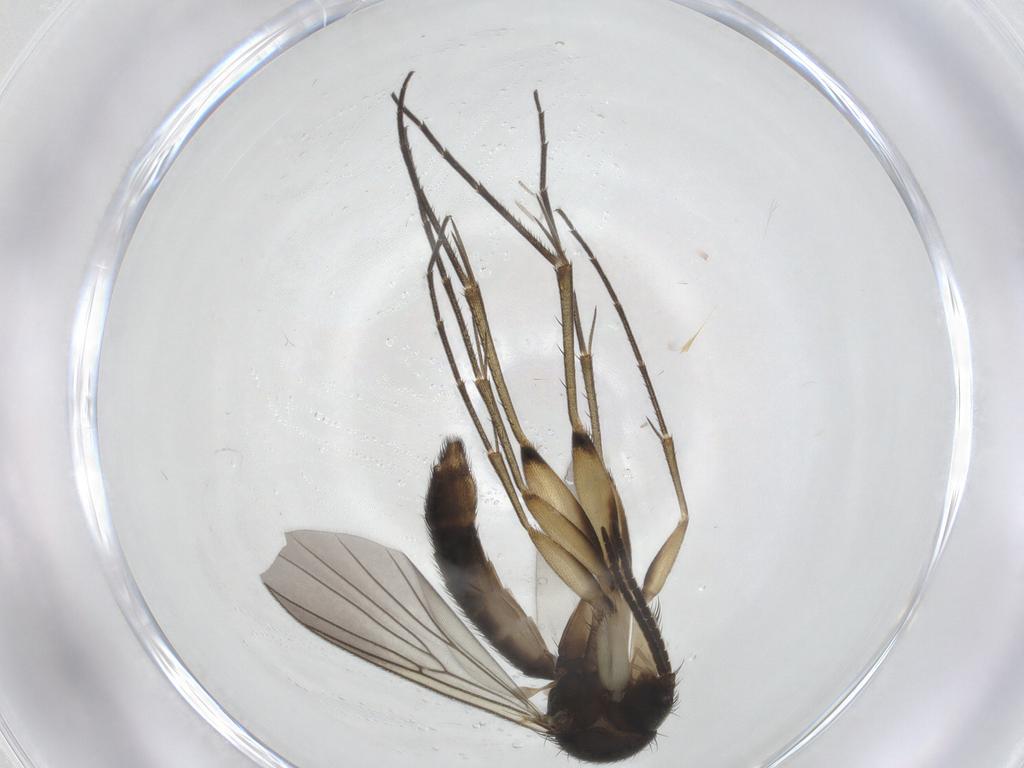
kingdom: Animalia
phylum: Arthropoda
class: Insecta
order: Diptera
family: Mycetophilidae
